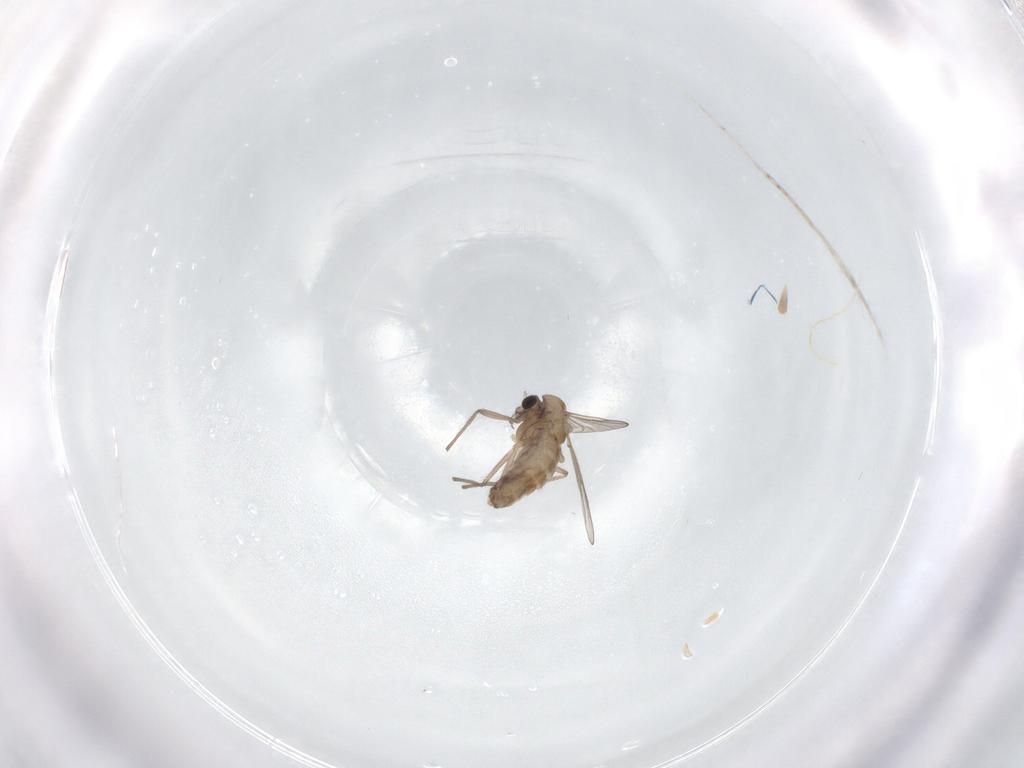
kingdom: Animalia
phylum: Arthropoda
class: Insecta
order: Diptera
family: Chironomidae
